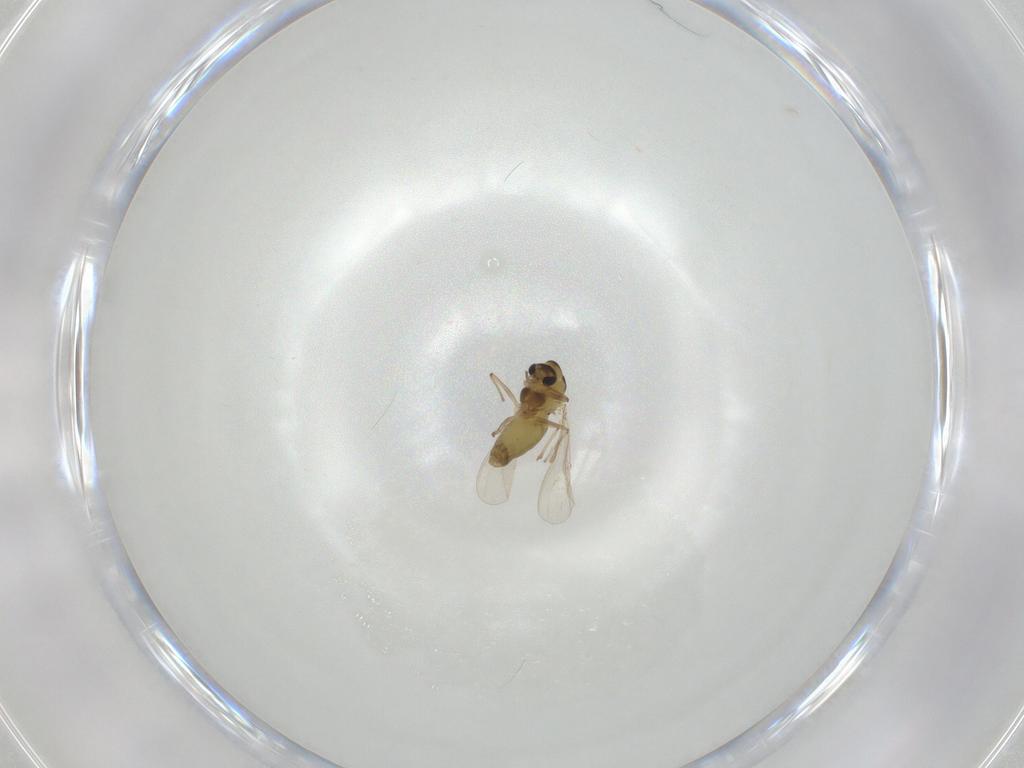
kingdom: Animalia
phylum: Arthropoda
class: Insecta
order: Diptera
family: Chironomidae
